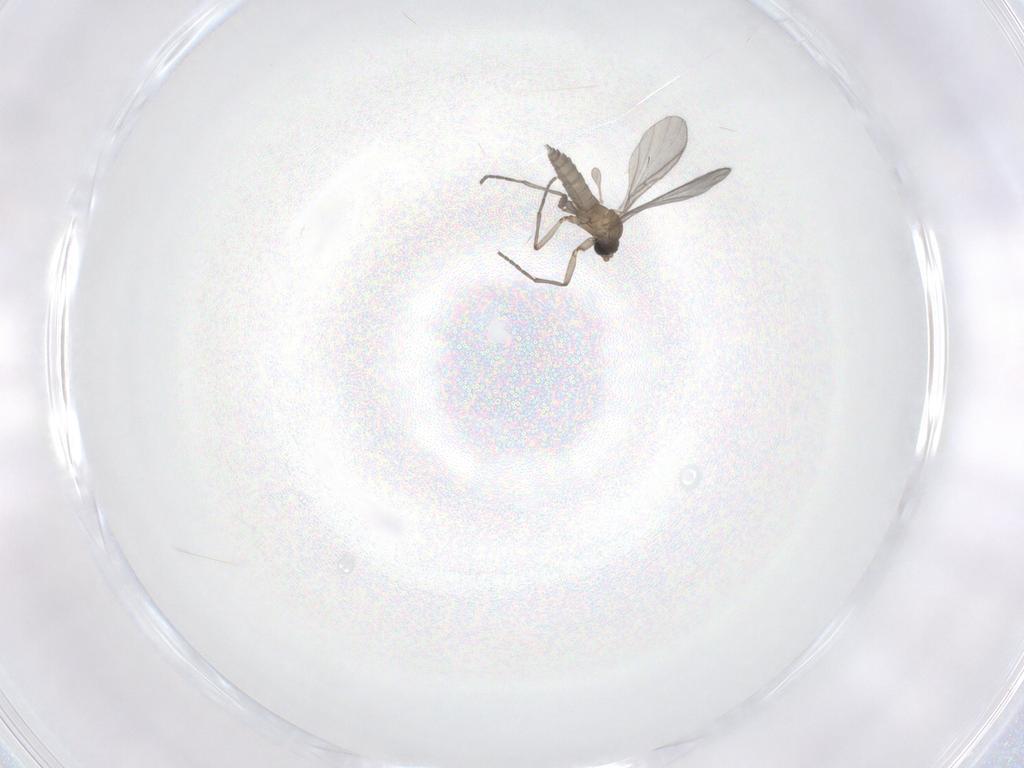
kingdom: Animalia
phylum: Arthropoda
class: Insecta
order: Diptera
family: Sciaridae
